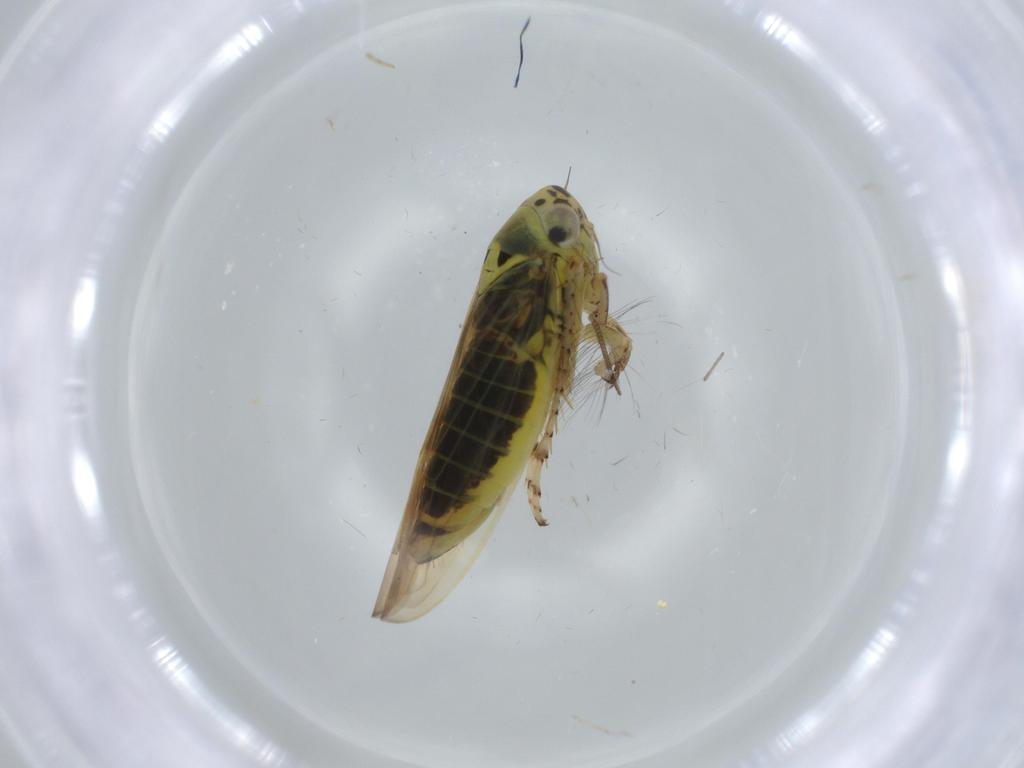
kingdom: Animalia
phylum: Arthropoda
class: Insecta
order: Hemiptera
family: Cicadellidae
